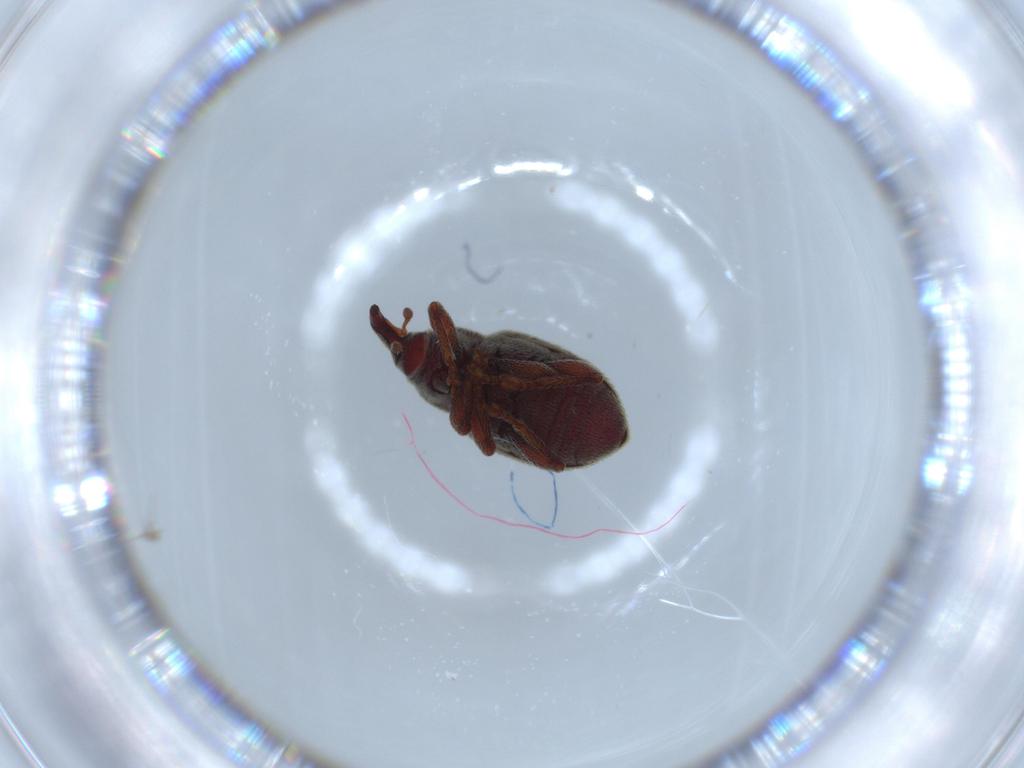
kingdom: Animalia
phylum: Arthropoda
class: Insecta
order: Coleoptera
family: Curculionidae
